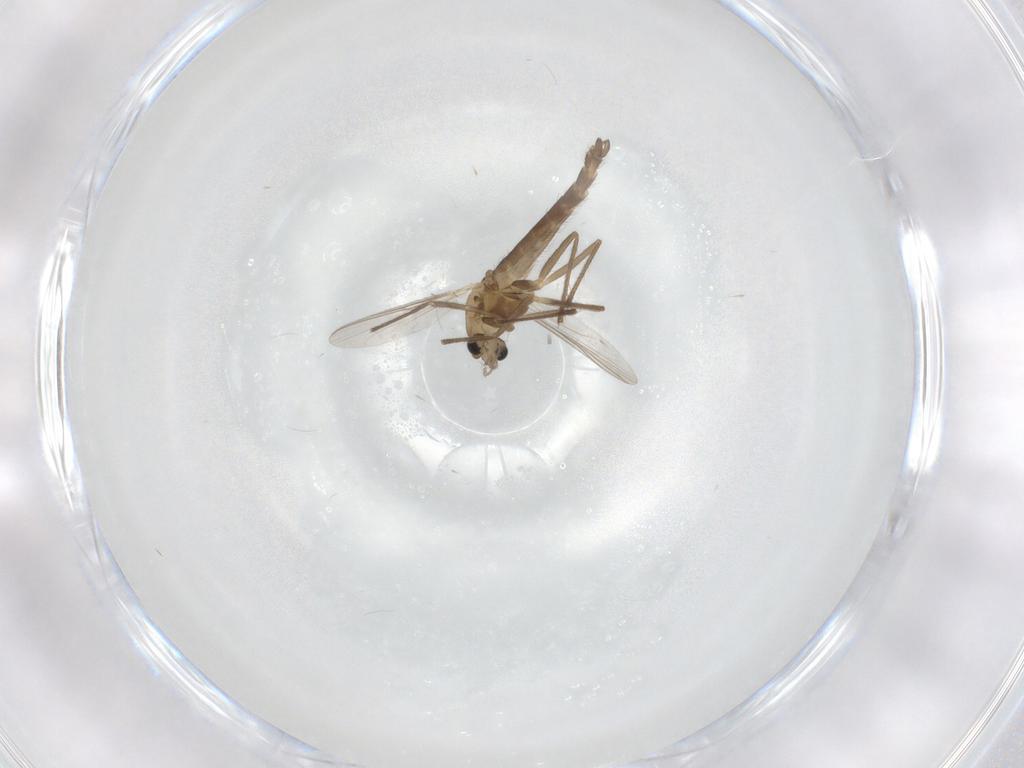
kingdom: Animalia
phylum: Arthropoda
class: Insecta
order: Diptera
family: Chironomidae
